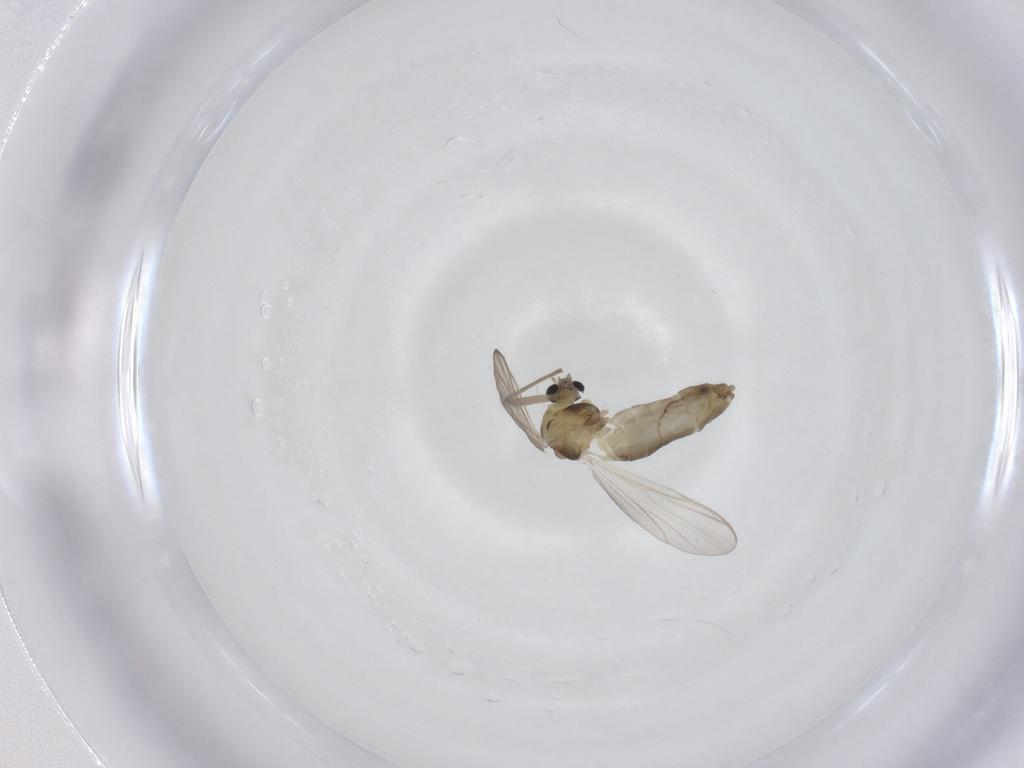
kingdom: Animalia
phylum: Arthropoda
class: Insecta
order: Diptera
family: Chironomidae
